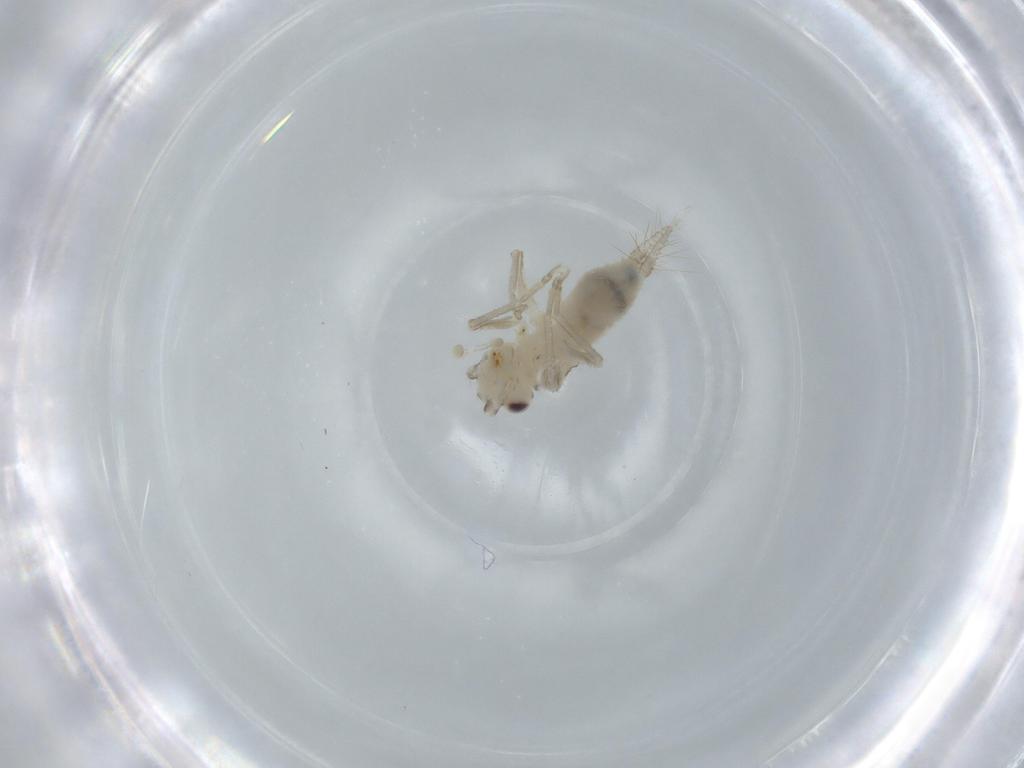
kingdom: Animalia
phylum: Arthropoda
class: Insecta
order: Orthoptera
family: Trigonidiidae
